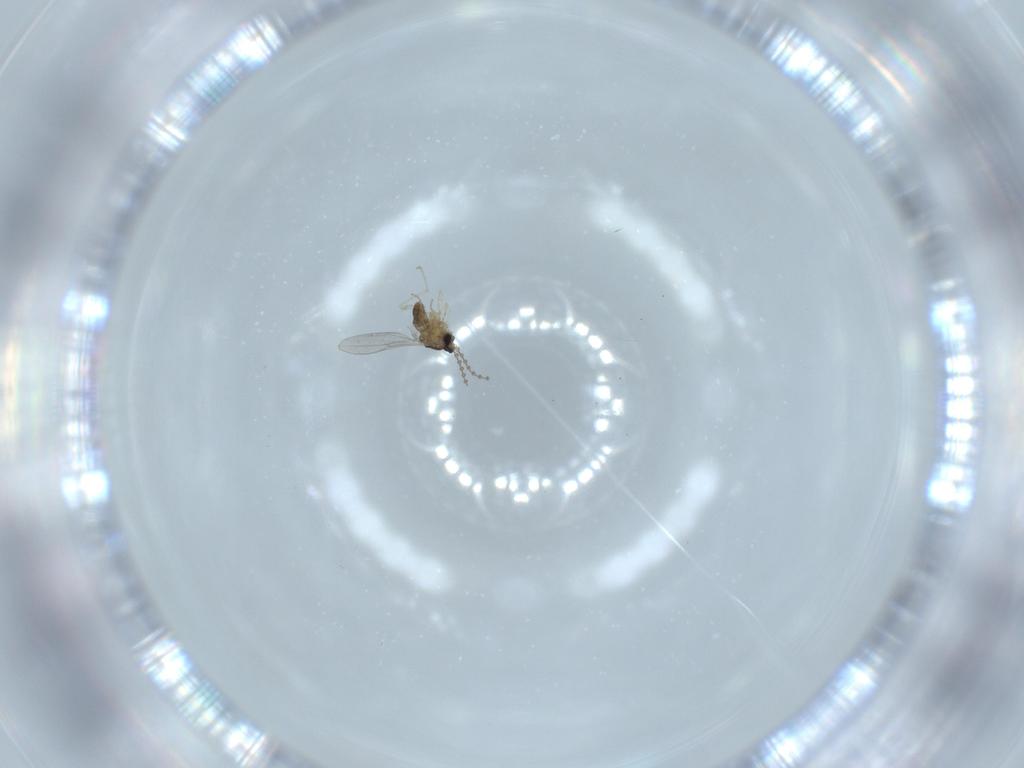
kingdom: Animalia
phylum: Arthropoda
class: Insecta
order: Diptera
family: Cecidomyiidae
